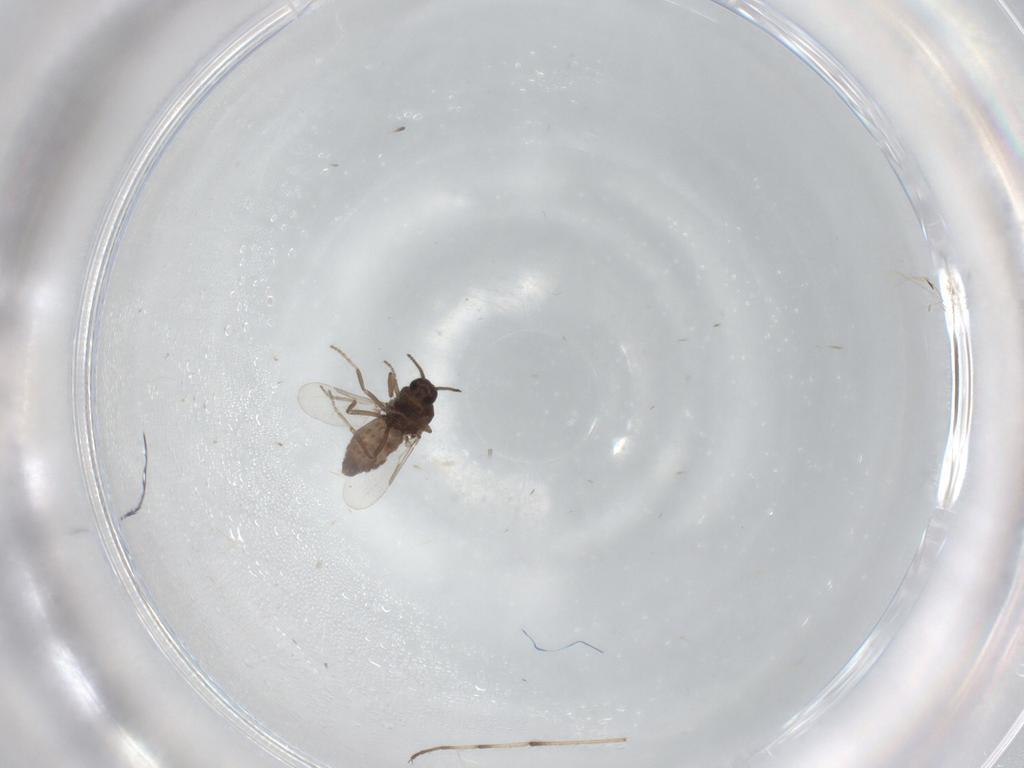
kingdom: Animalia
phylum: Arthropoda
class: Insecta
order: Diptera
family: Ceratopogonidae
